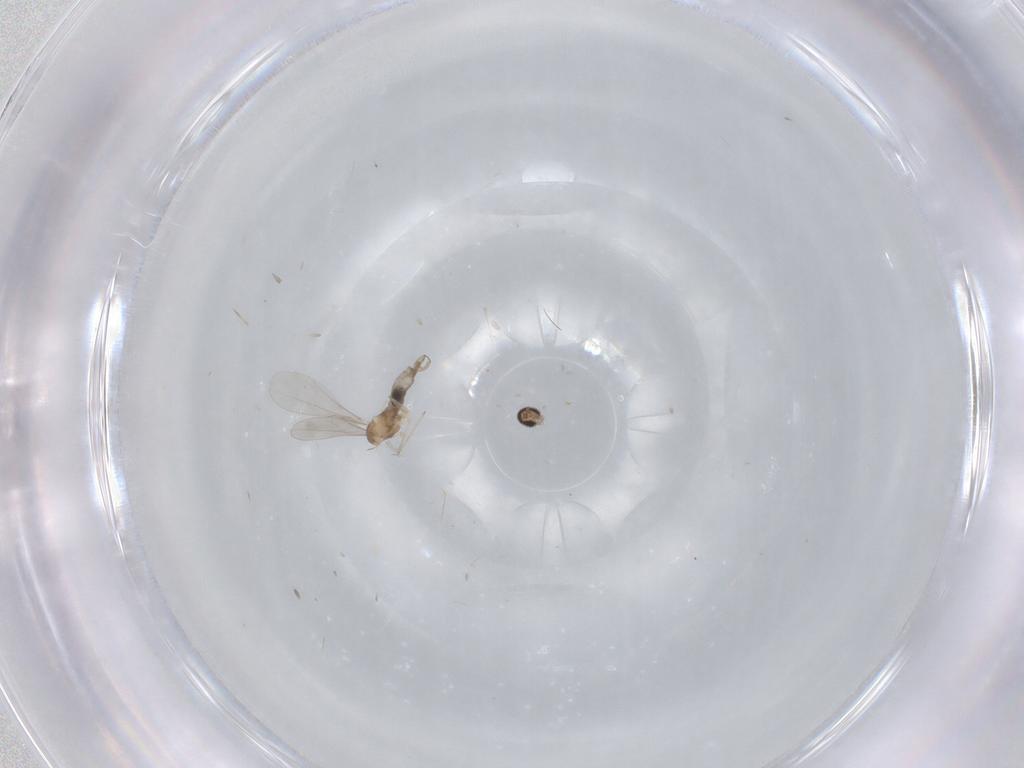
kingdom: Animalia
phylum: Arthropoda
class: Insecta
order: Diptera
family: Cecidomyiidae
